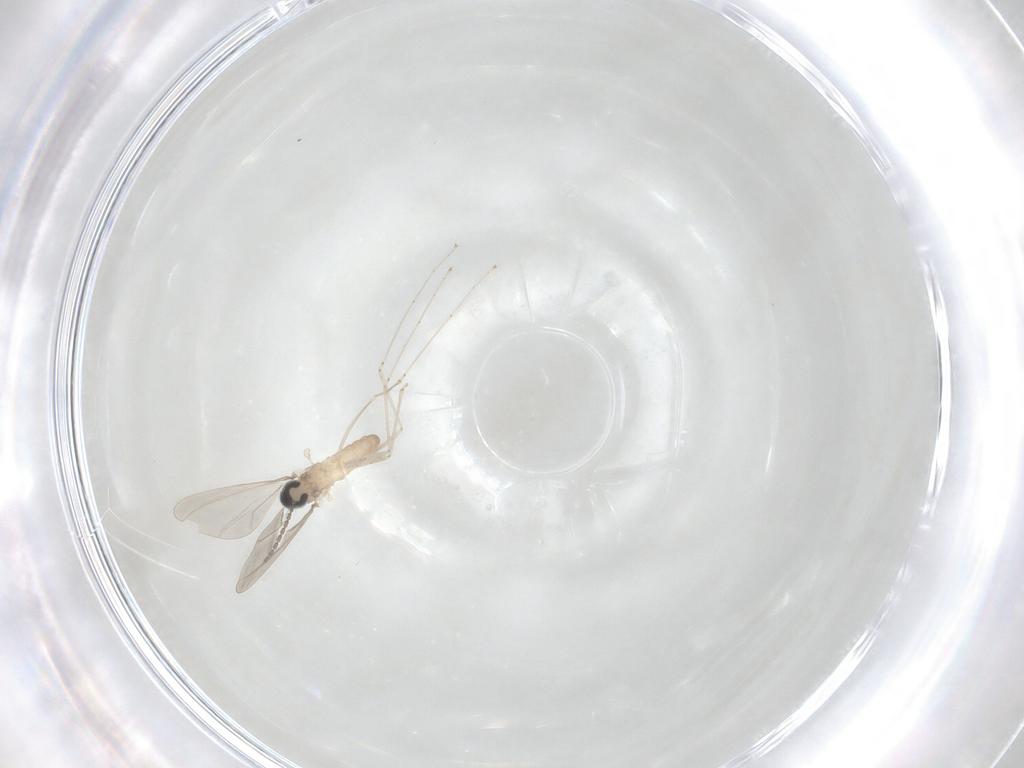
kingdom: Animalia
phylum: Arthropoda
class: Insecta
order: Diptera
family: Cecidomyiidae
